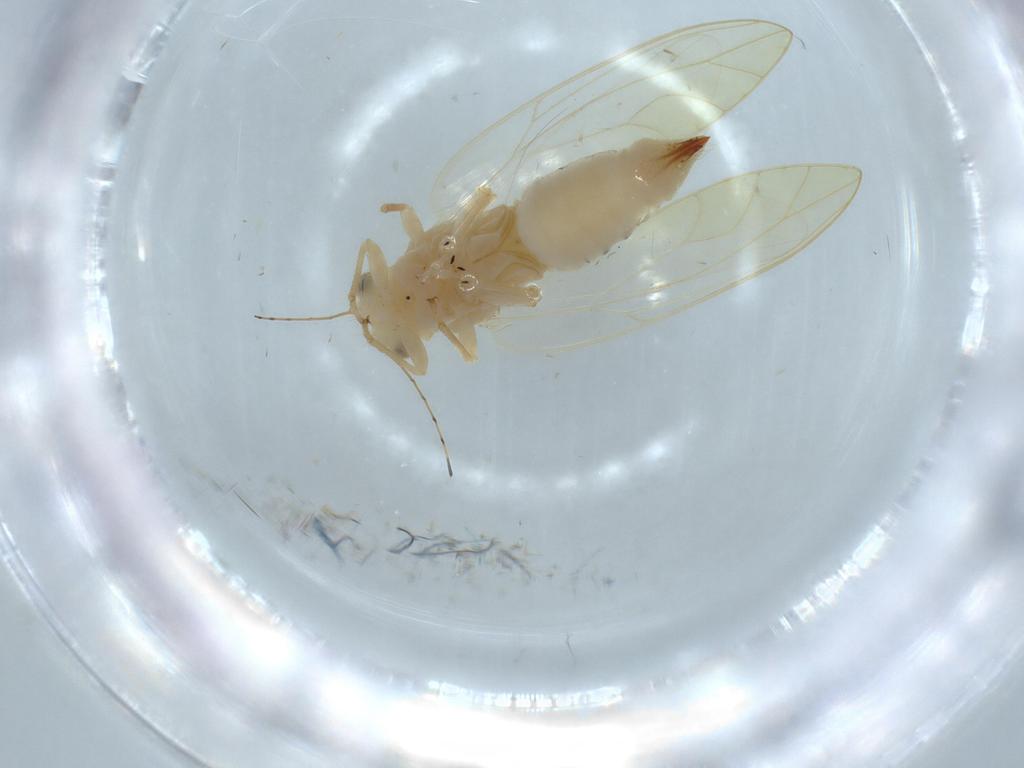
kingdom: Animalia
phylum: Arthropoda
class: Insecta
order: Hemiptera
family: Triozidae
